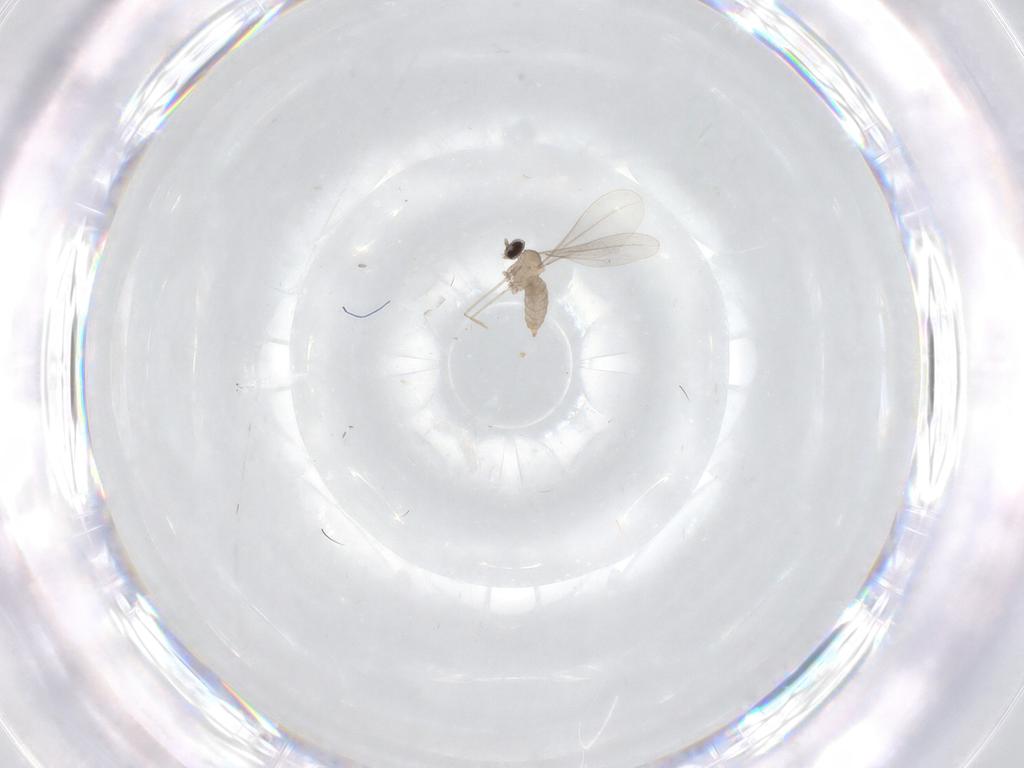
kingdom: Animalia
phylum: Arthropoda
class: Insecta
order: Diptera
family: Cecidomyiidae
